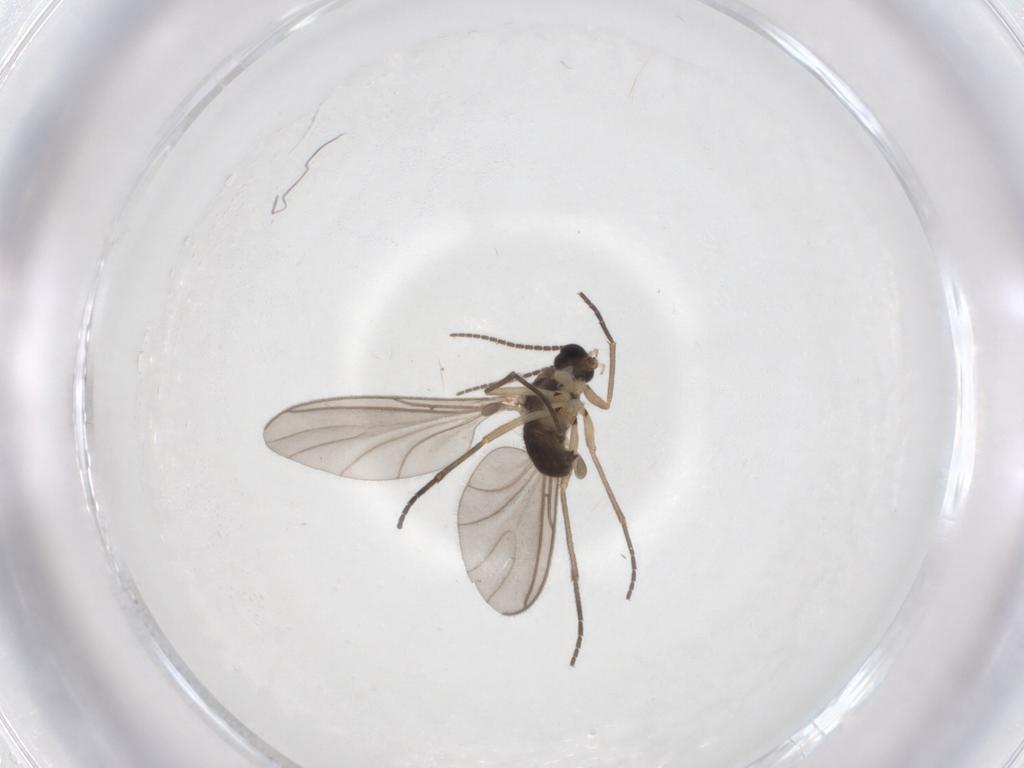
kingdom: Animalia
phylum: Arthropoda
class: Insecta
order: Diptera
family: Sciaridae
